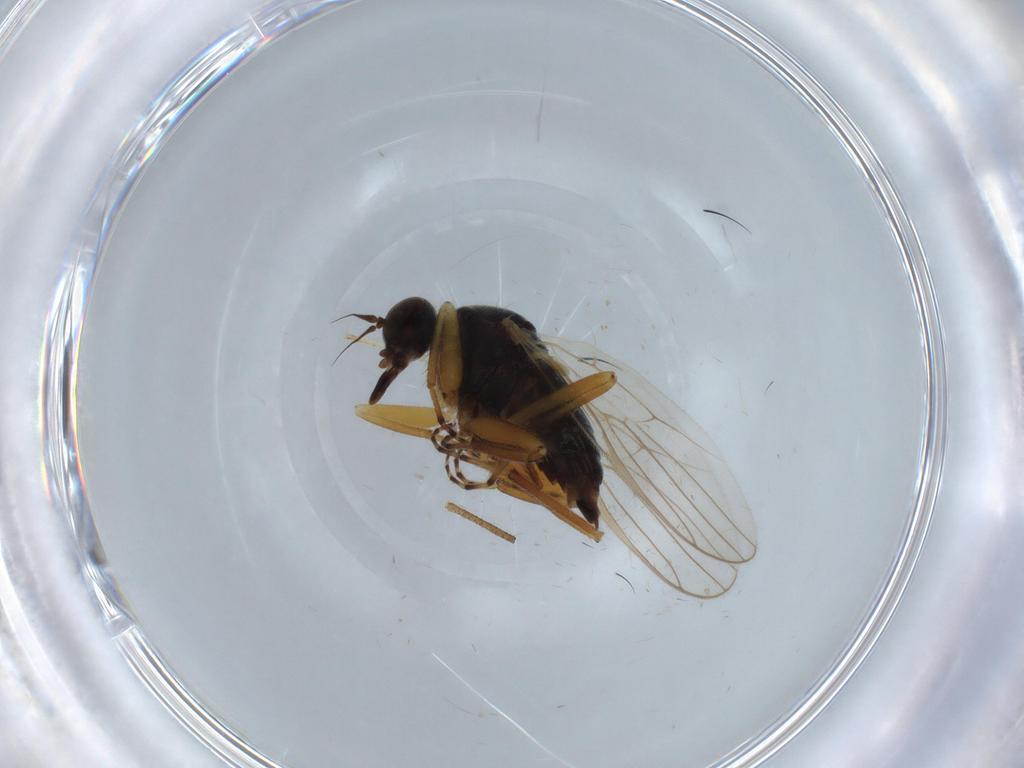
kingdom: Animalia
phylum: Arthropoda
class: Insecta
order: Diptera
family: Hybotidae
